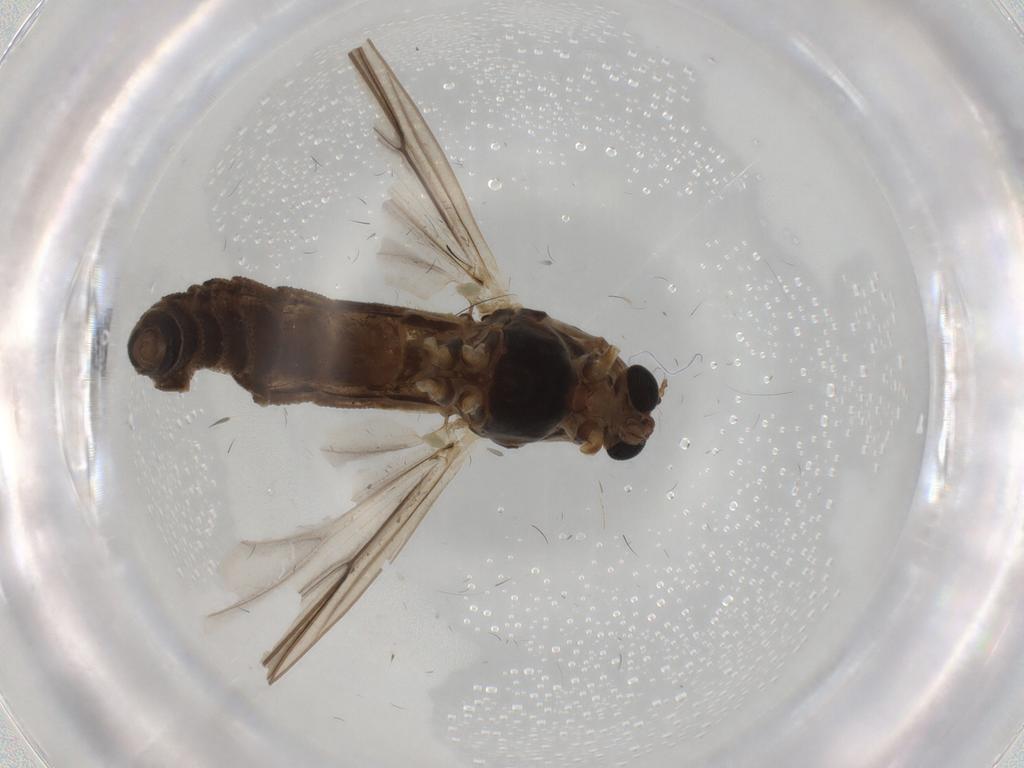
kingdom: Animalia
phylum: Arthropoda
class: Insecta
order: Diptera
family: Chironomidae
